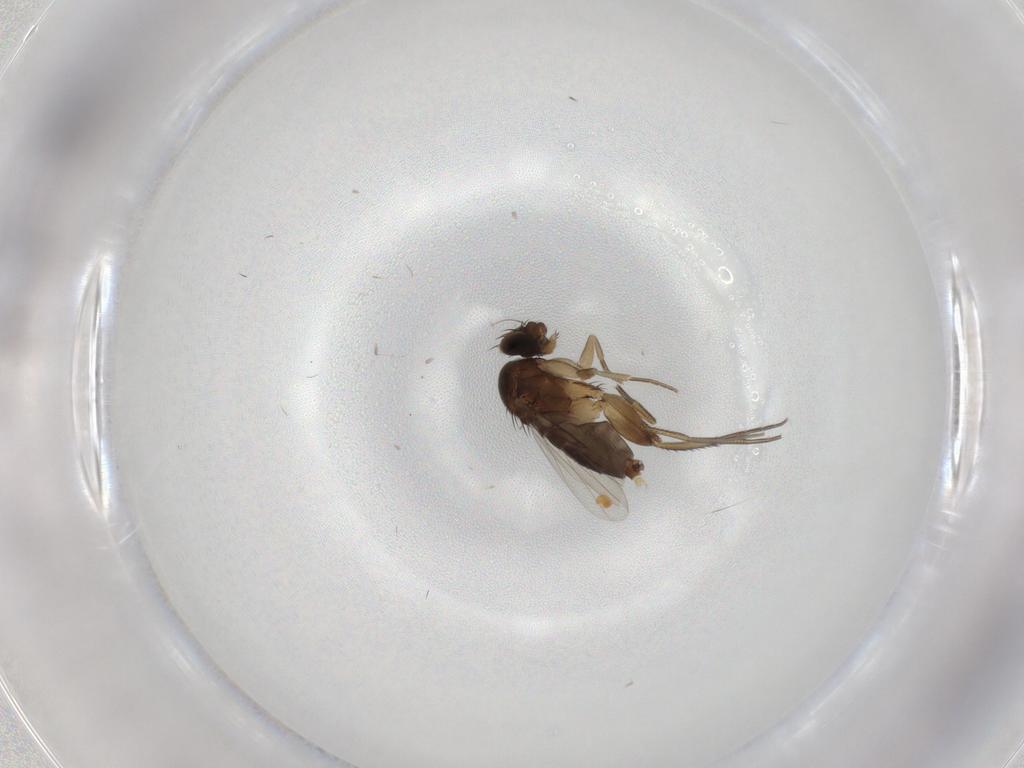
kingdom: Animalia
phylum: Arthropoda
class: Insecta
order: Diptera
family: Phoridae
